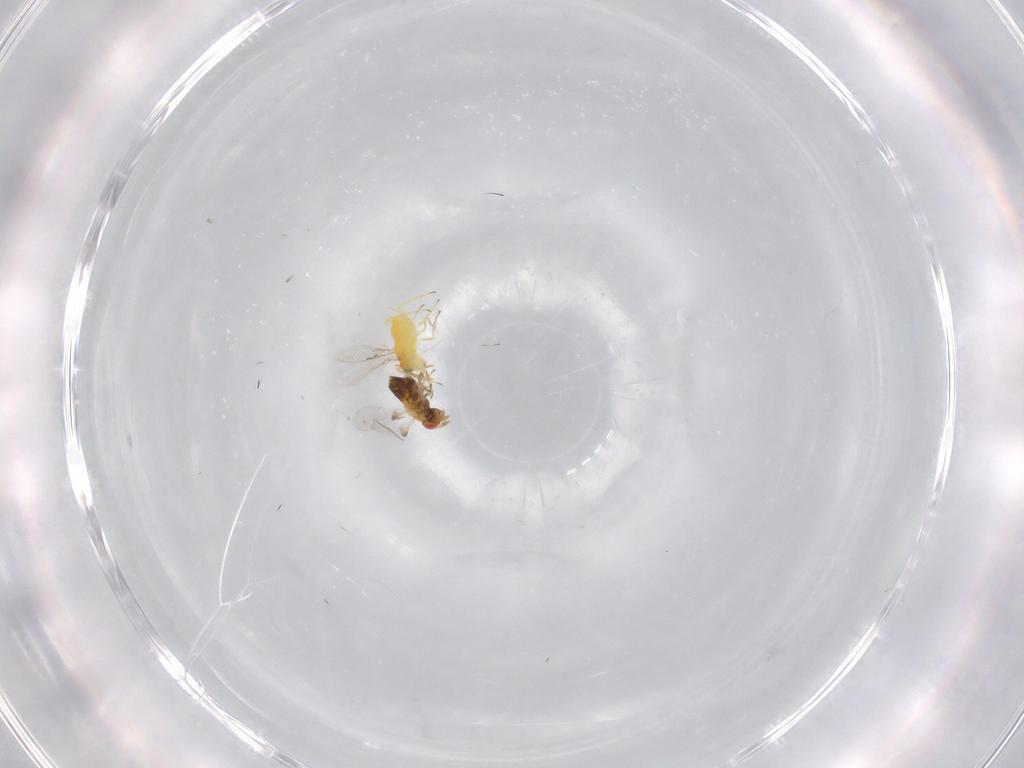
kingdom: Animalia
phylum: Arthropoda
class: Insecta
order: Hymenoptera
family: Trichogrammatidae
